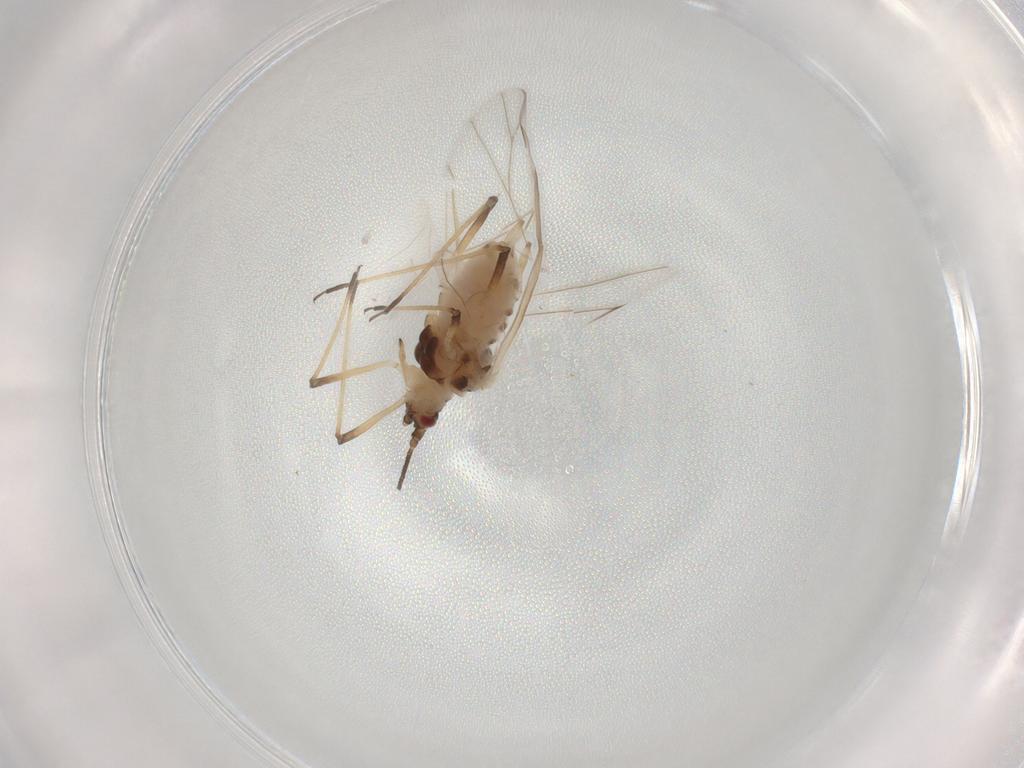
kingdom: Animalia
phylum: Arthropoda
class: Insecta
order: Hemiptera
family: Aphididae
